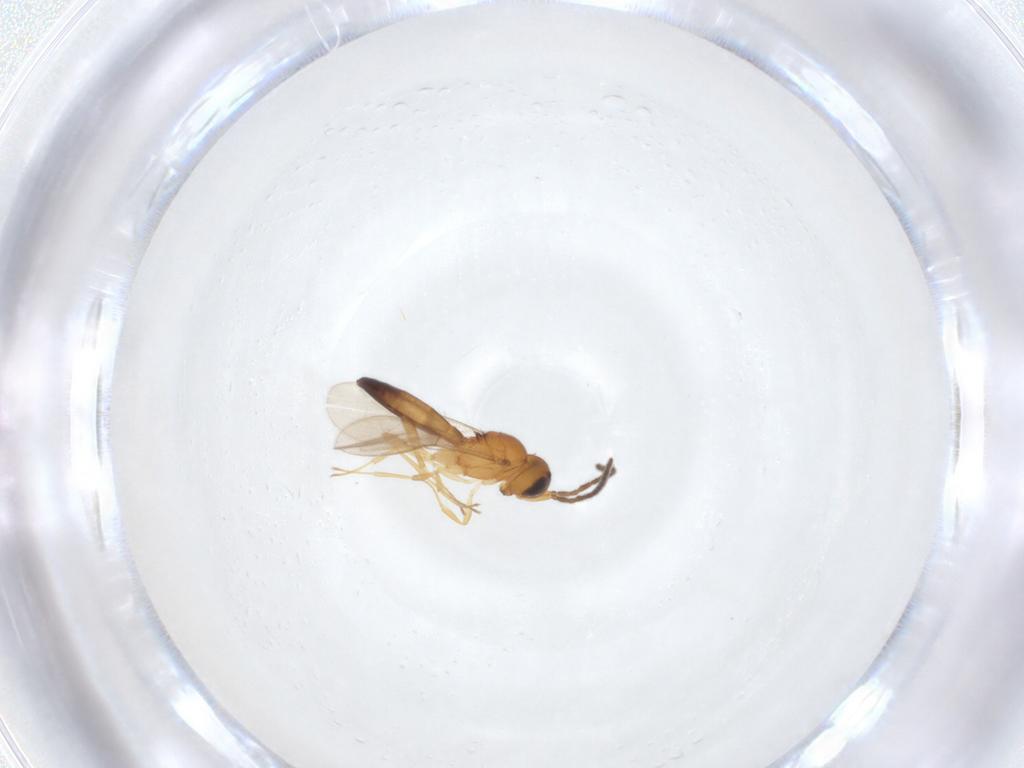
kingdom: Animalia
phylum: Arthropoda
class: Insecta
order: Hymenoptera
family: Scelionidae
